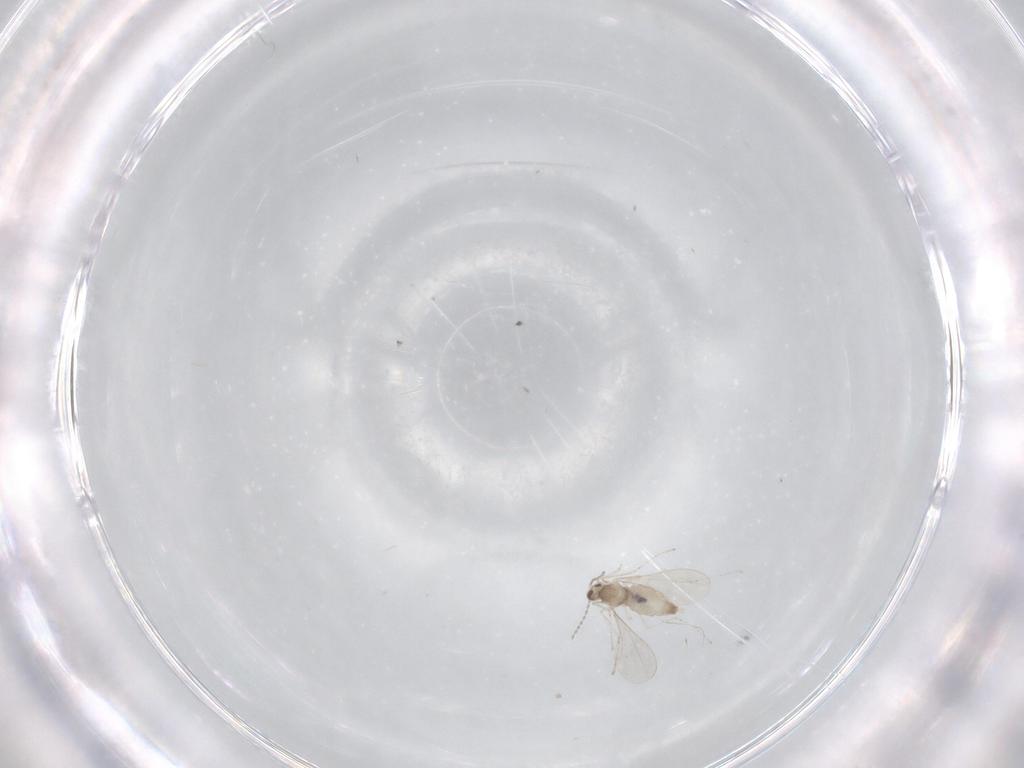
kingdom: Animalia
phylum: Arthropoda
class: Insecta
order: Diptera
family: Cecidomyiidae
